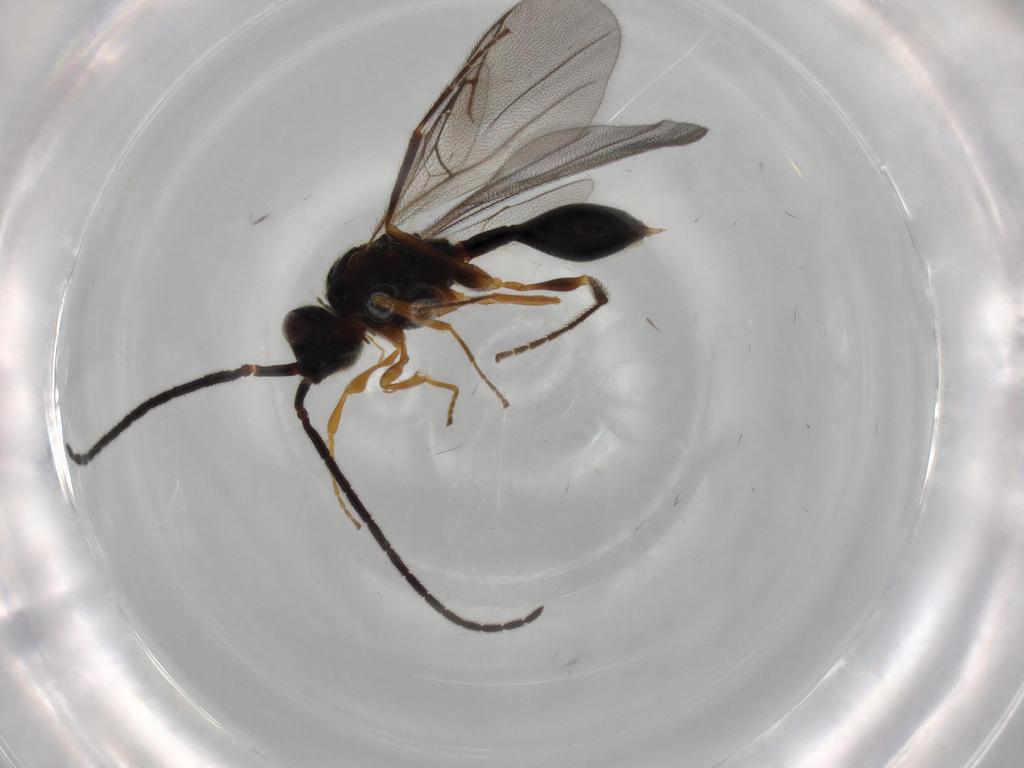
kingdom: Animalia
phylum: Arthropoda
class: Insecta
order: Hymenoptera
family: Diapriidae
